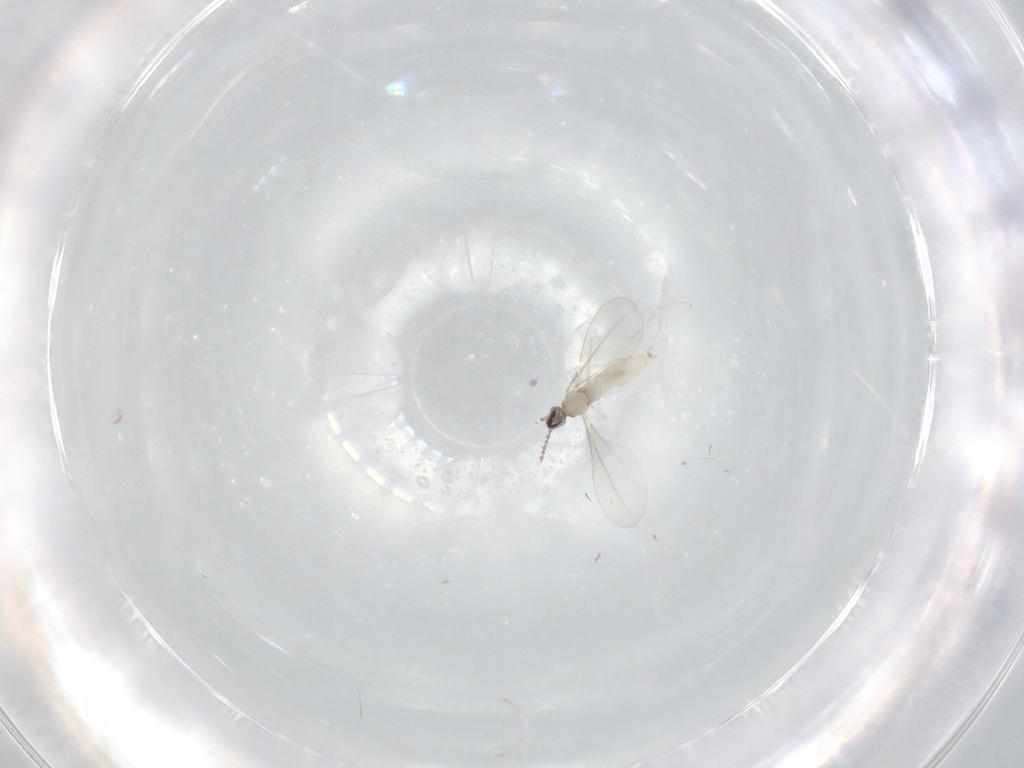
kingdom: Animalia
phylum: Arthropoda
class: Insecta
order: Diptera
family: Cecidomyiidae
